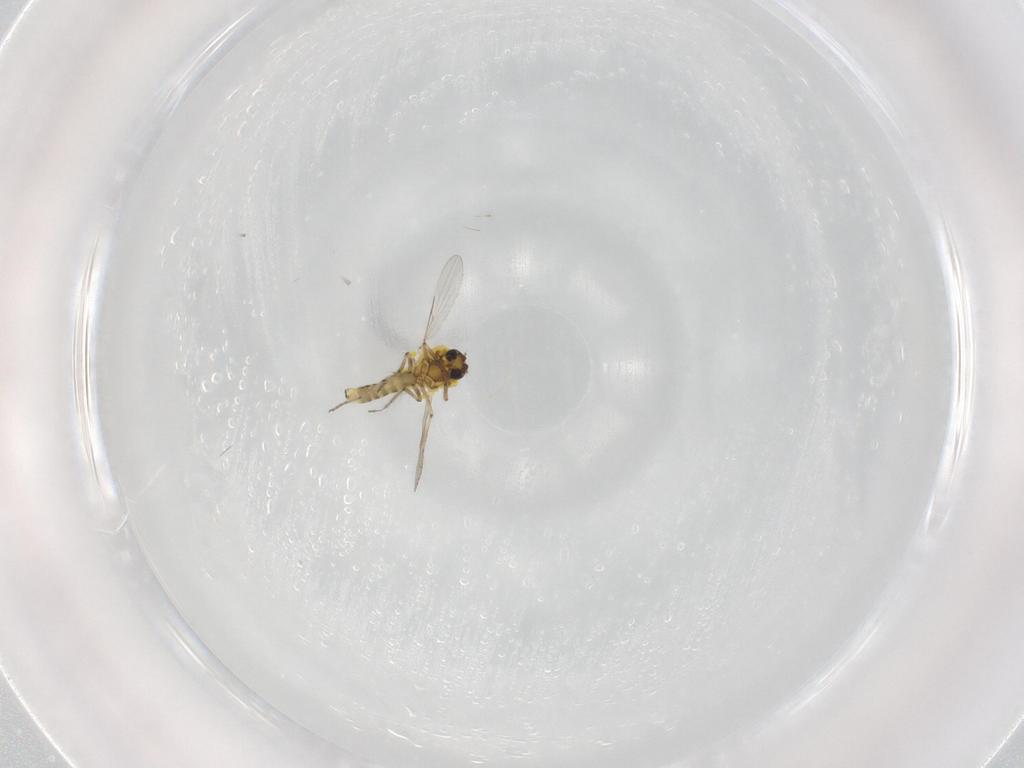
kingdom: Animalia
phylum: Arthropoda
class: Insecta
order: Diptera
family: Ceratopogonidae
